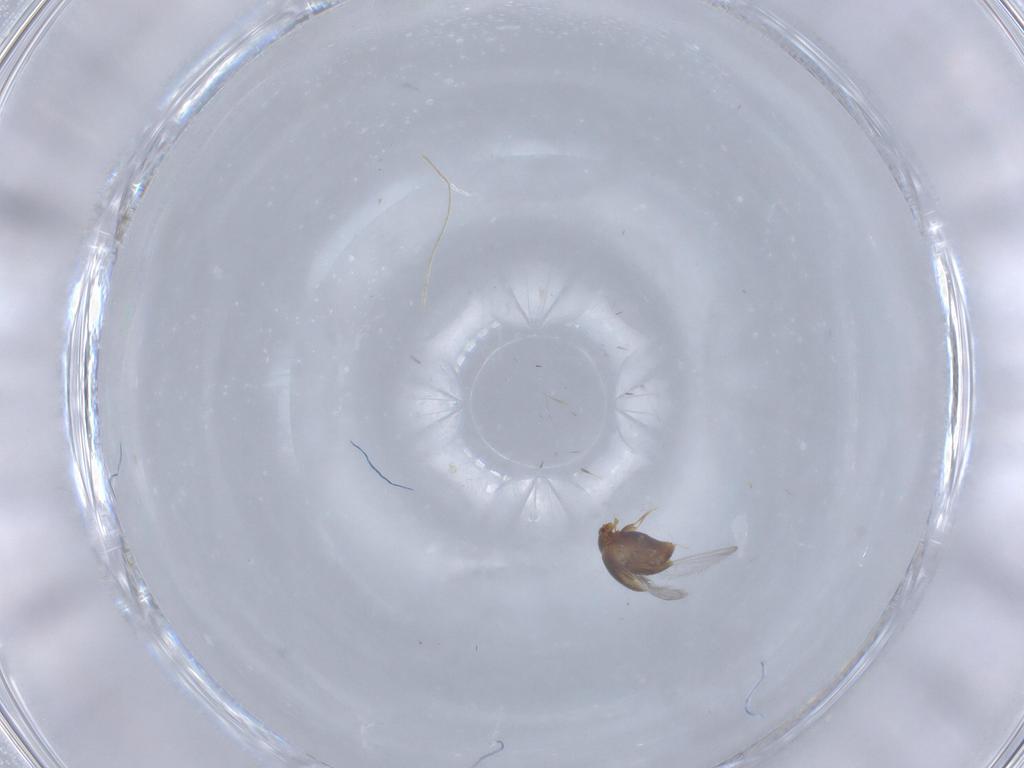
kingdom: Animalia
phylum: Arthropoda
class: Insecta
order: Coleoptera
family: Corylophidae
